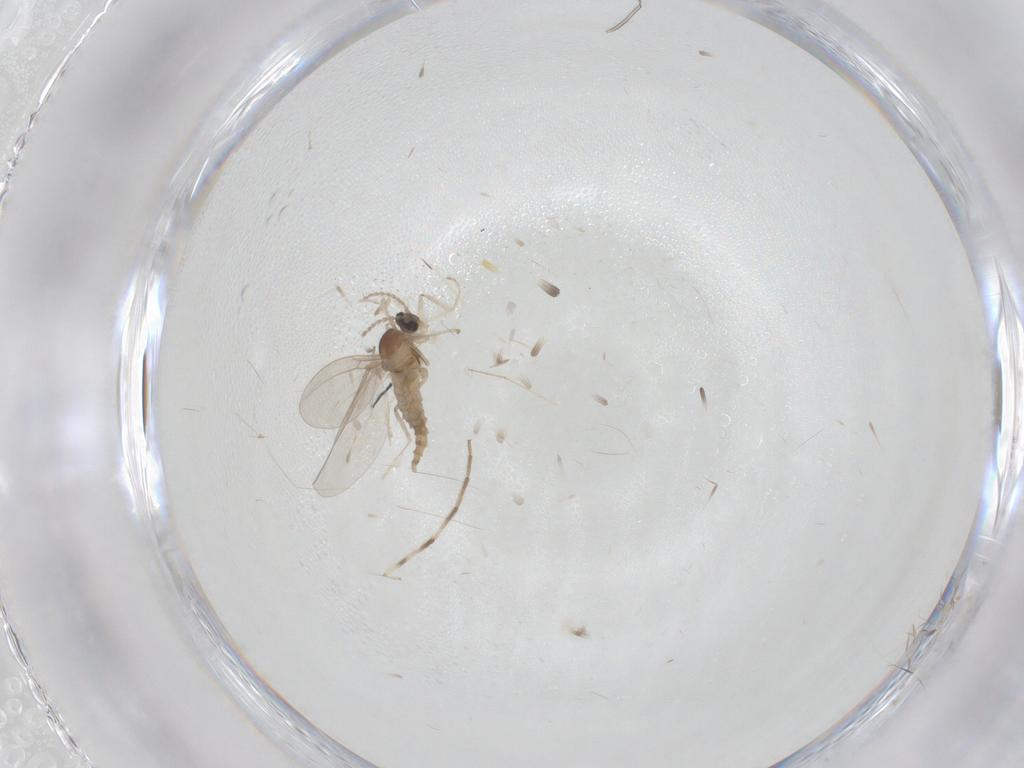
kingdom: Animalia
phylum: Arthropoda
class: Insecta
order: Diptera
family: Cecidomyiidae
